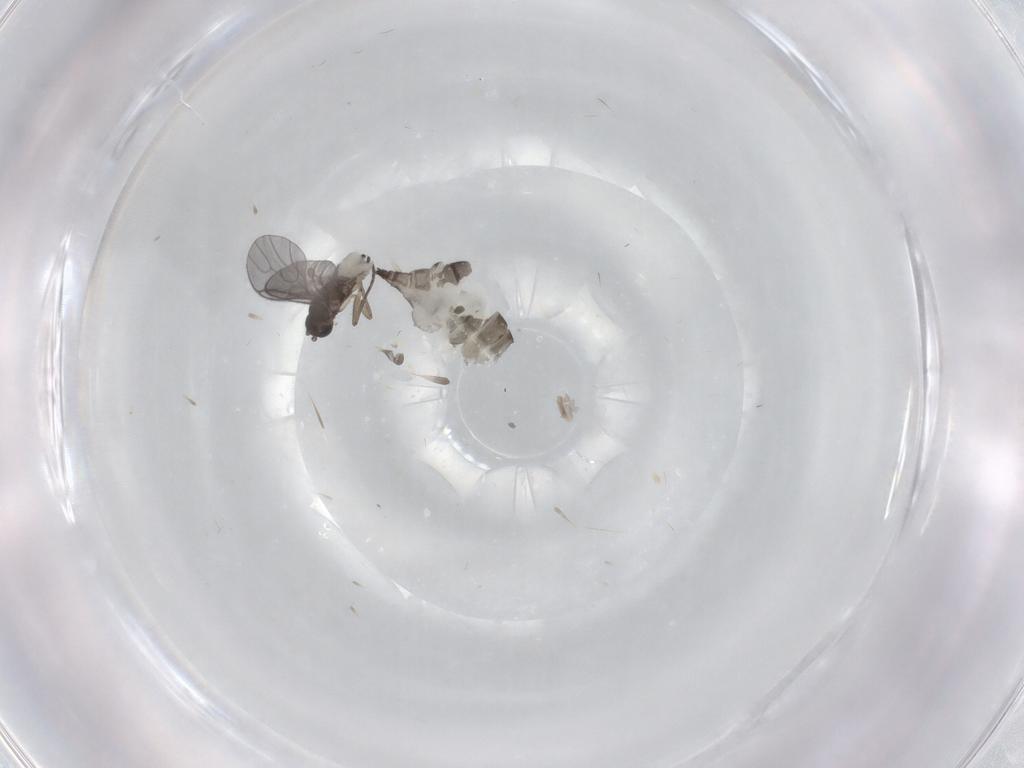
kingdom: Animalia
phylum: Arthropoda
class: Insecta
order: Diptera
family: Sciaridae
